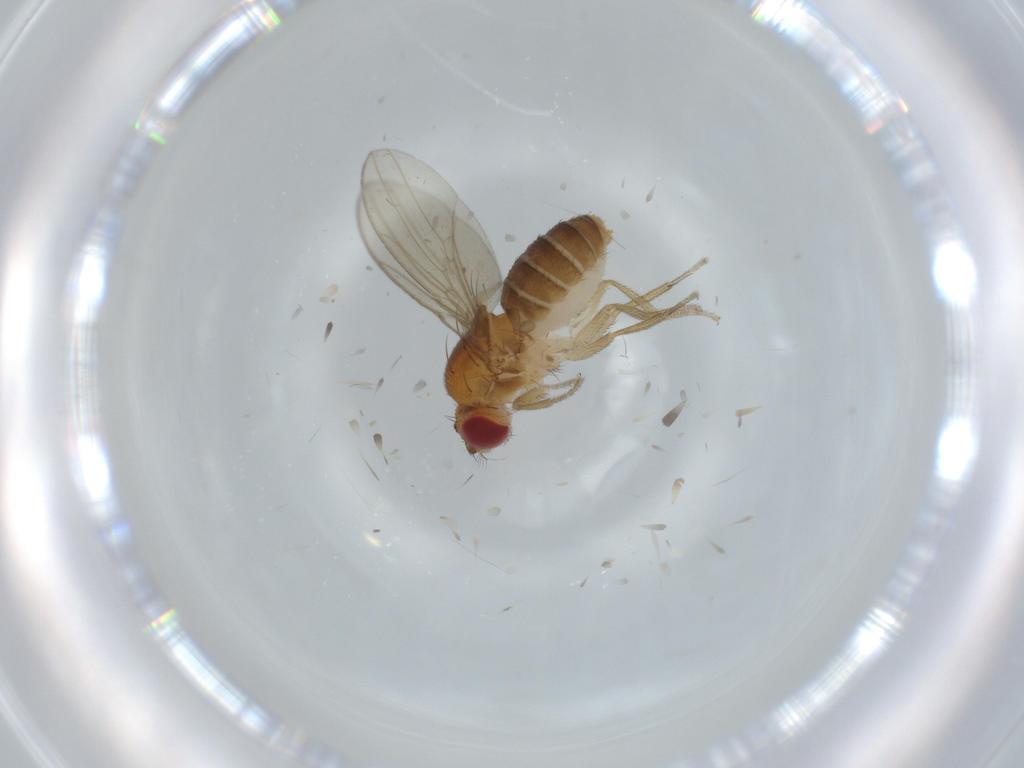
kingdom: Animalia
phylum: Arthropoda
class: Insecta
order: Diptera
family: Drosophilidae
